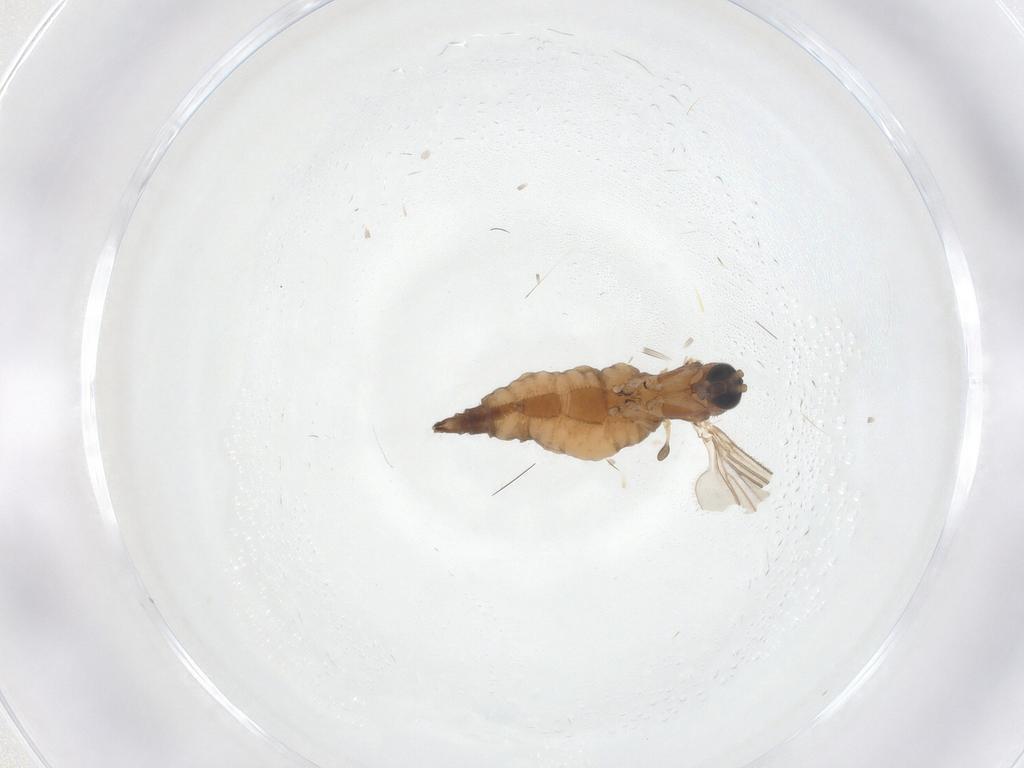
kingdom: Animalia
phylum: Arthropoda
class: Insecta
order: Diptera
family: Sciaridae
